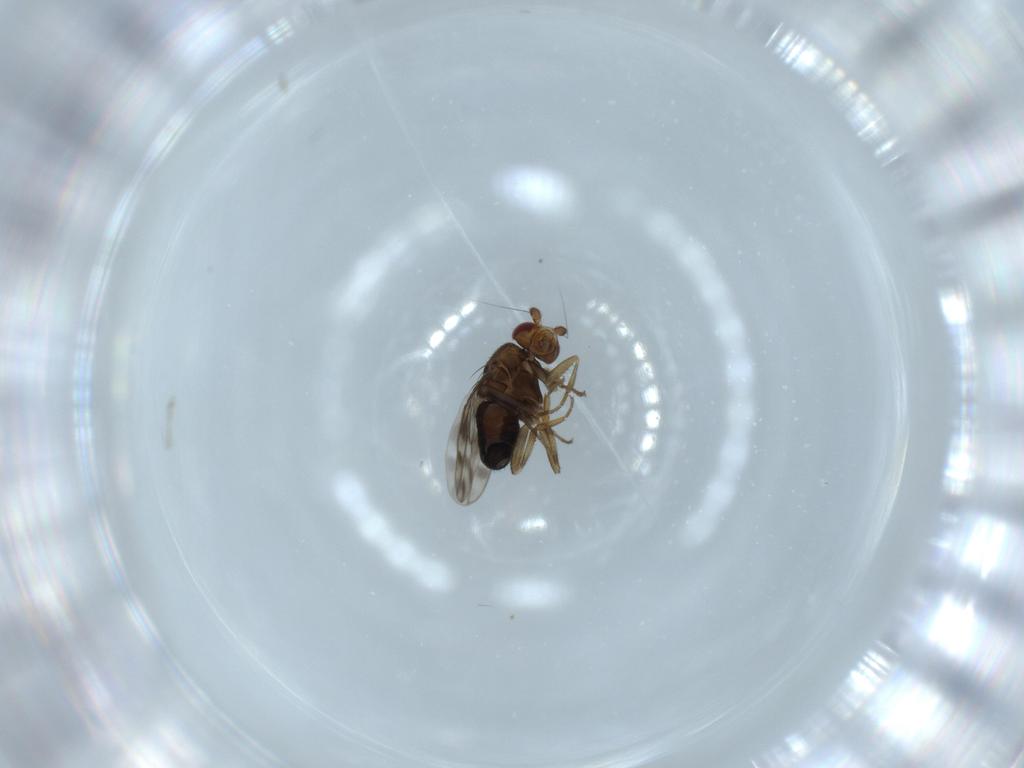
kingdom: Animalia
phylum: Arthropoda
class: Insecta
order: Diptera
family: Sphaeroceridae
